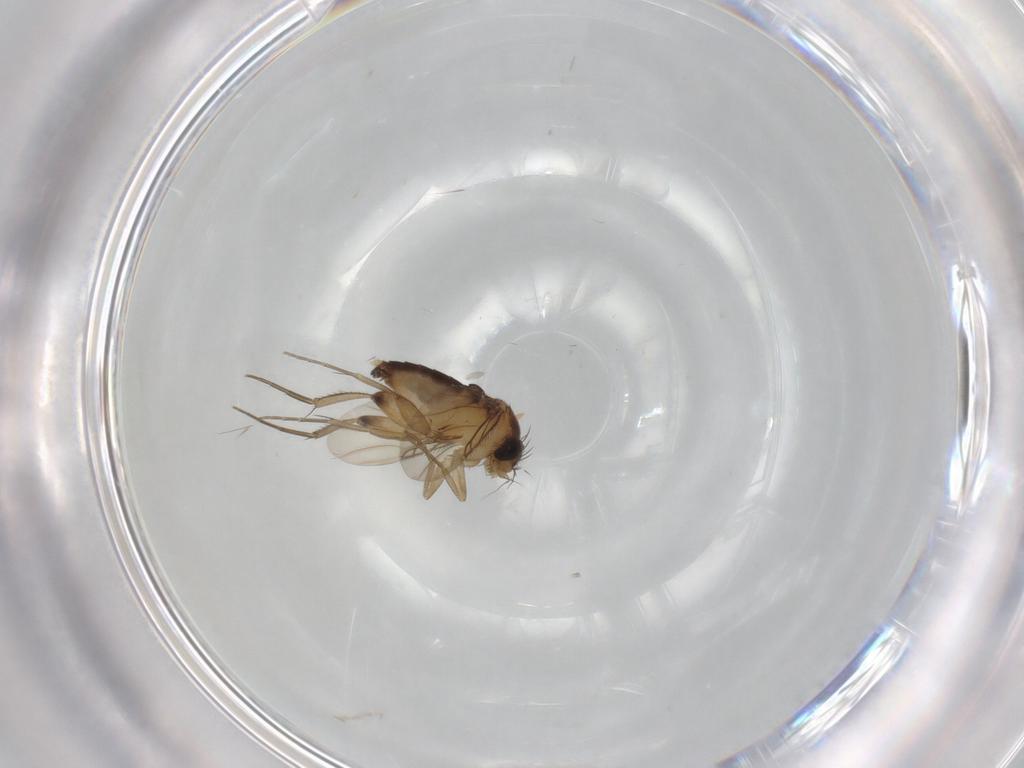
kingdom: Animalia
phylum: Arthropoda
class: Insecta
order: Diptera
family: Phoridae
